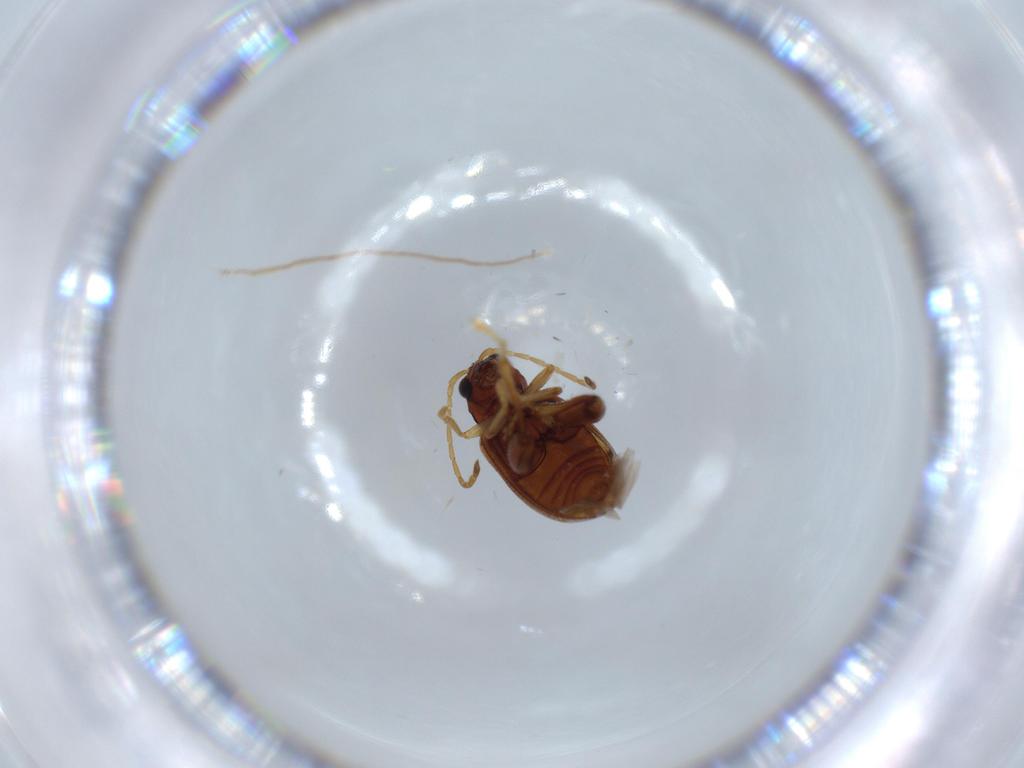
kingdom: Animalia
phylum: Arthropoda
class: Insecta
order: Coleoptera
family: Chrysomelidae
